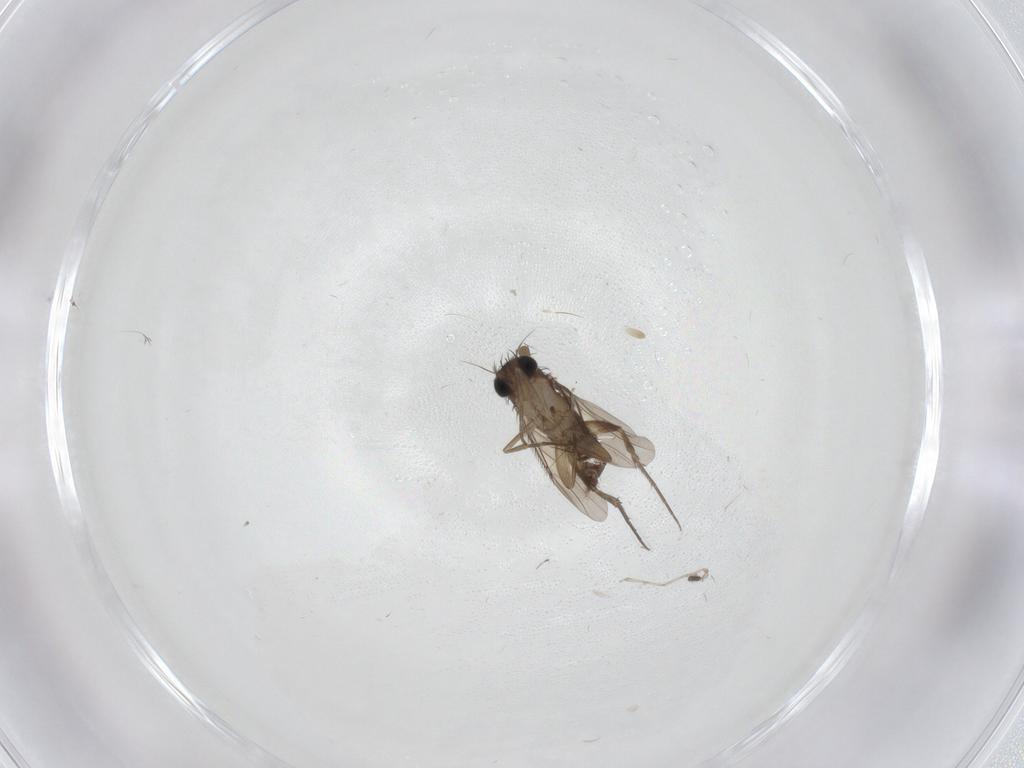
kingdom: Animalia
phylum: Arthropoda
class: Insecta
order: Diptera
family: Phoridae
